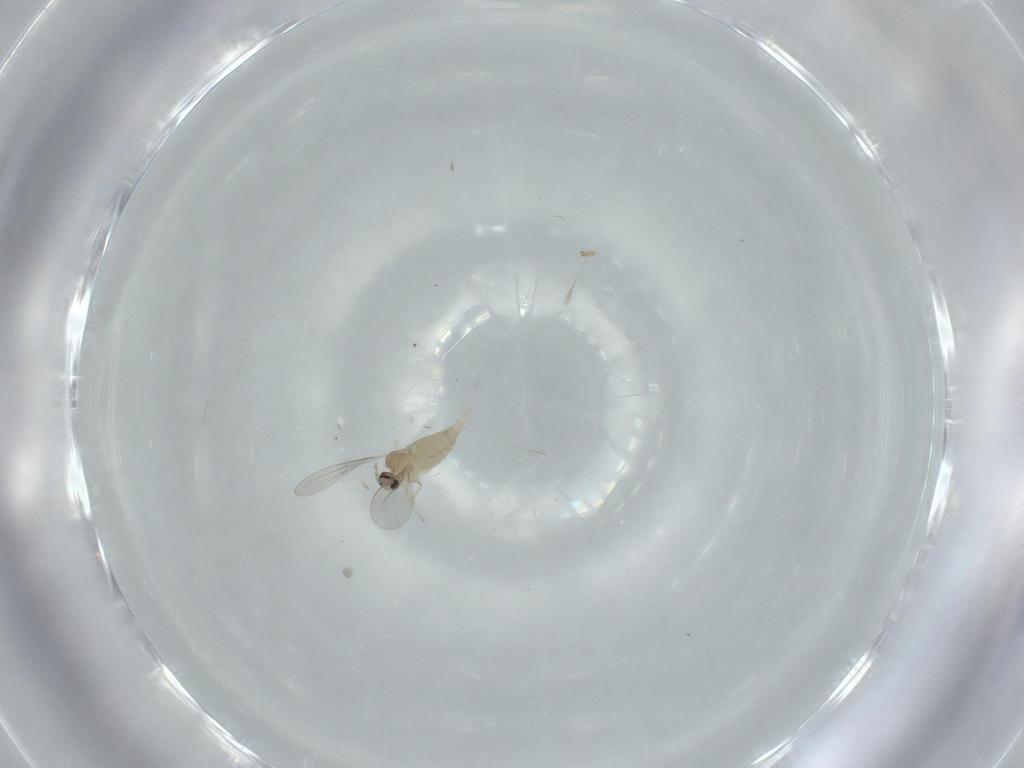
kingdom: Animalia
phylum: Arthropoda
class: Insecta
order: Diptera
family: Cecidomyiidae
